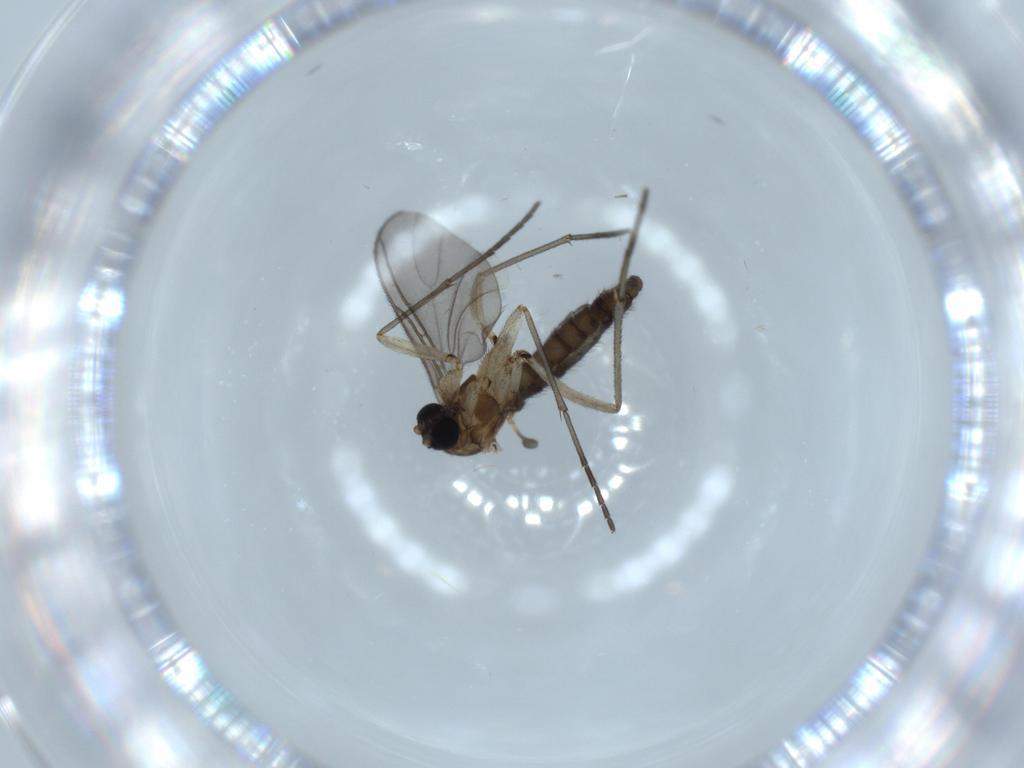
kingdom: Animalia
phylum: Arthropoda
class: Insecta
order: Diptera
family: Sciaridae
